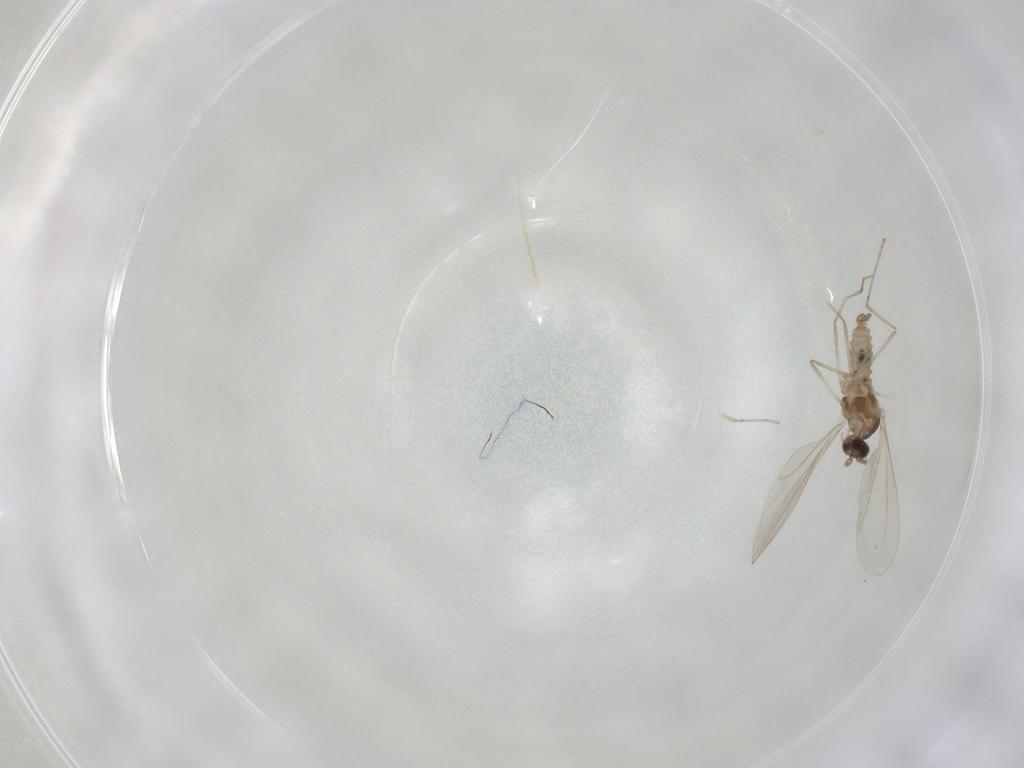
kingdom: Animalia
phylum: Arthropoda
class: Insecta
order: Diptera
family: Cecidomyiidae
